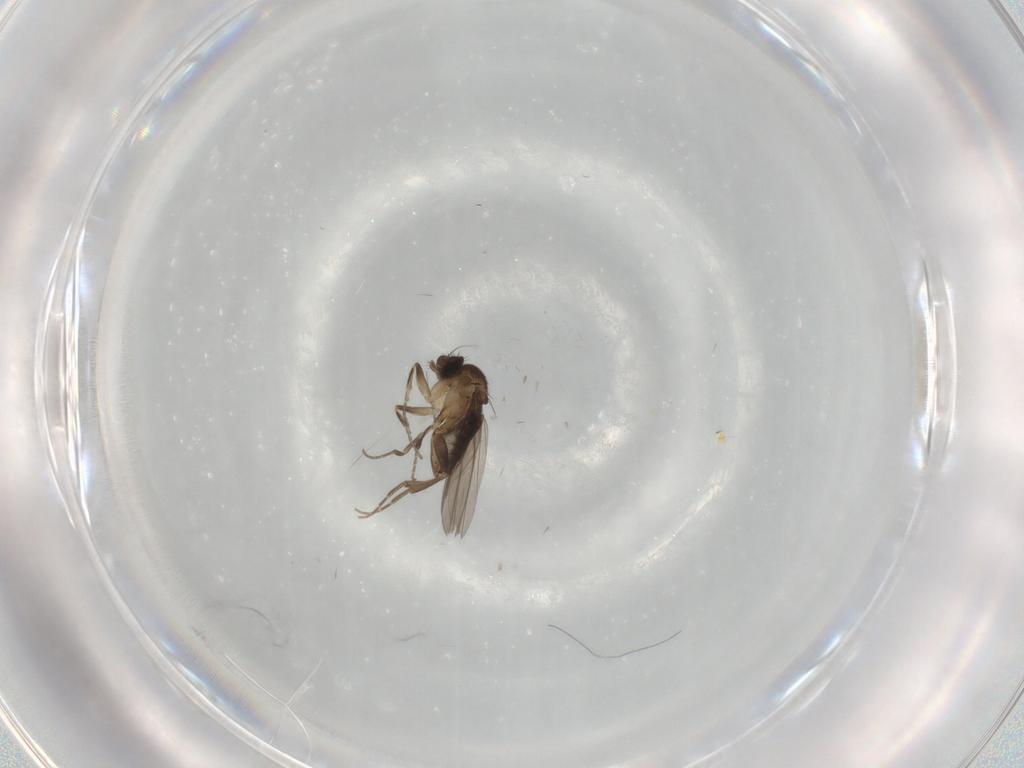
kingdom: Animalia
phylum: Arthropoda
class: Insecta
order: Diptera
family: Phoridae
